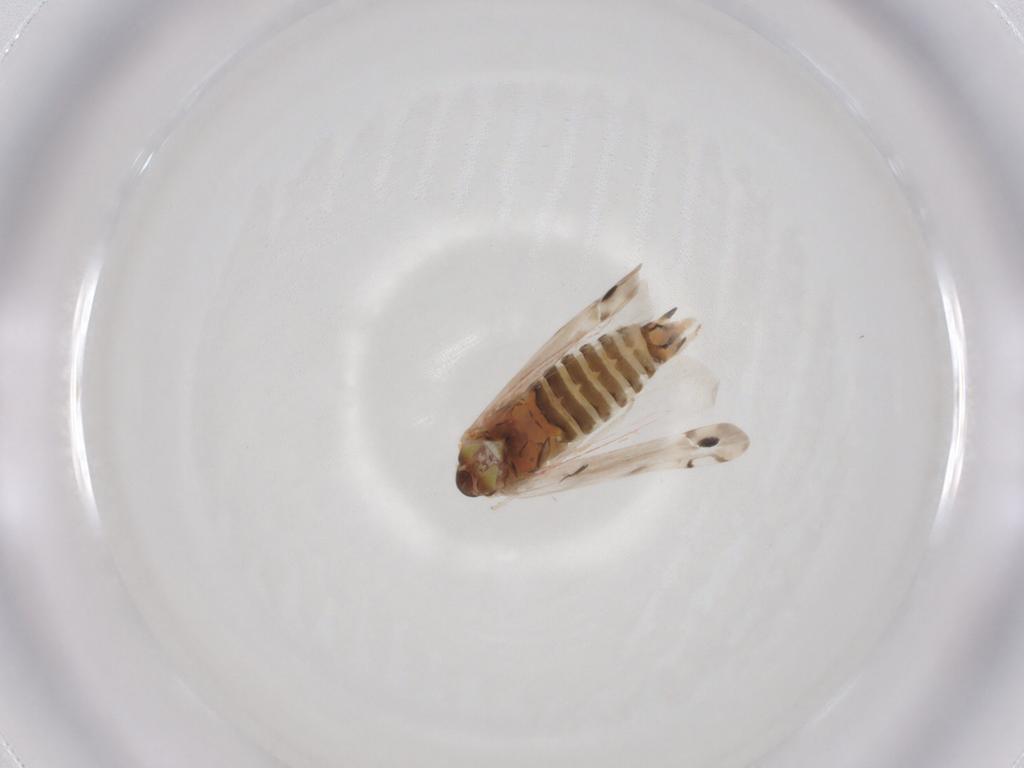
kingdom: Animalia
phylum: Arthropoda
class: Insecta
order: Hemiptera
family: Cicadellidae
